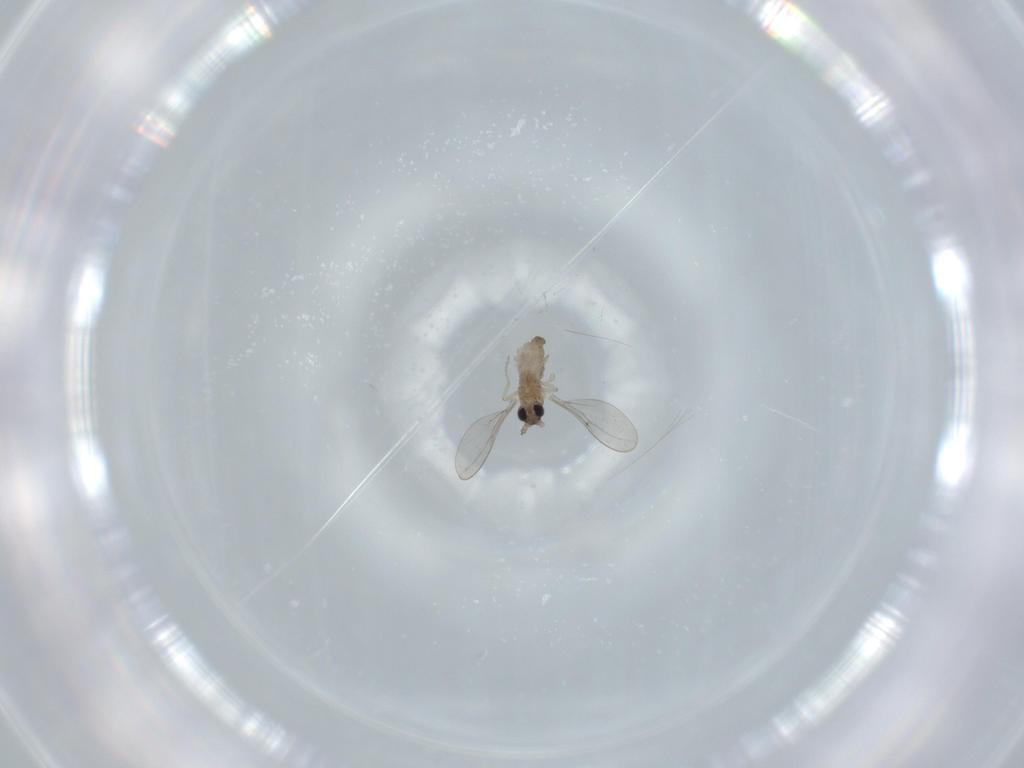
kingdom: Animalia
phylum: Arthropoda
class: Insecta
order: Diptera
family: Cecidomyiidae
